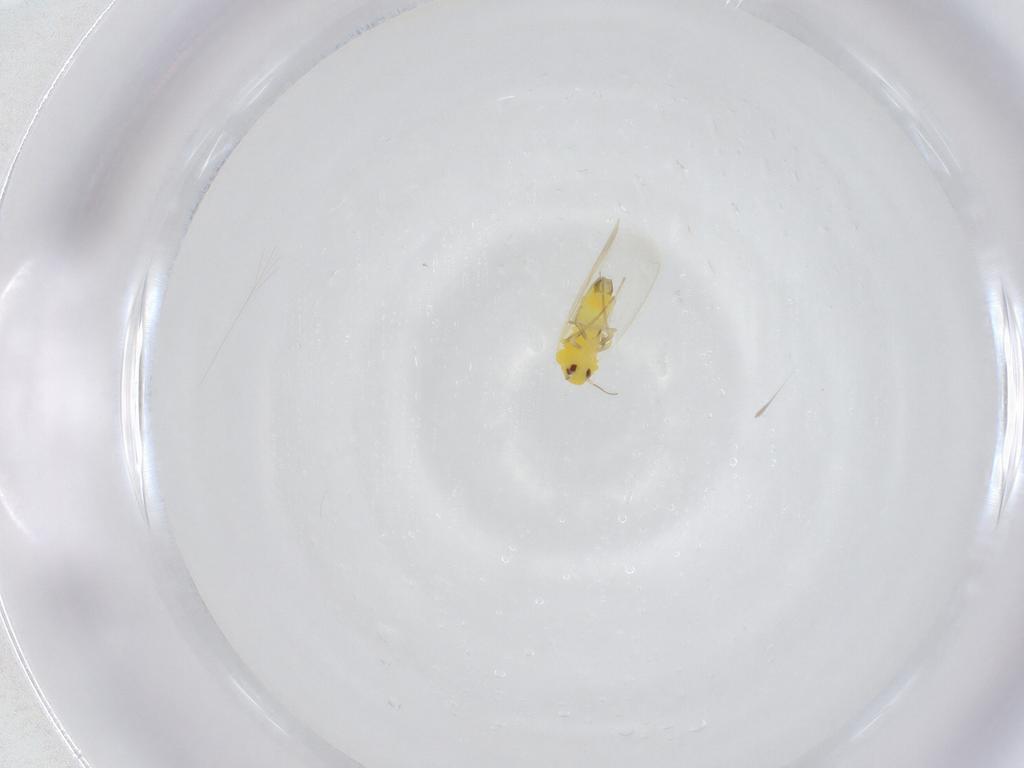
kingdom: Animalia
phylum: Arthropoda
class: Insecta
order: Hemiptera
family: Aleyrodidae
